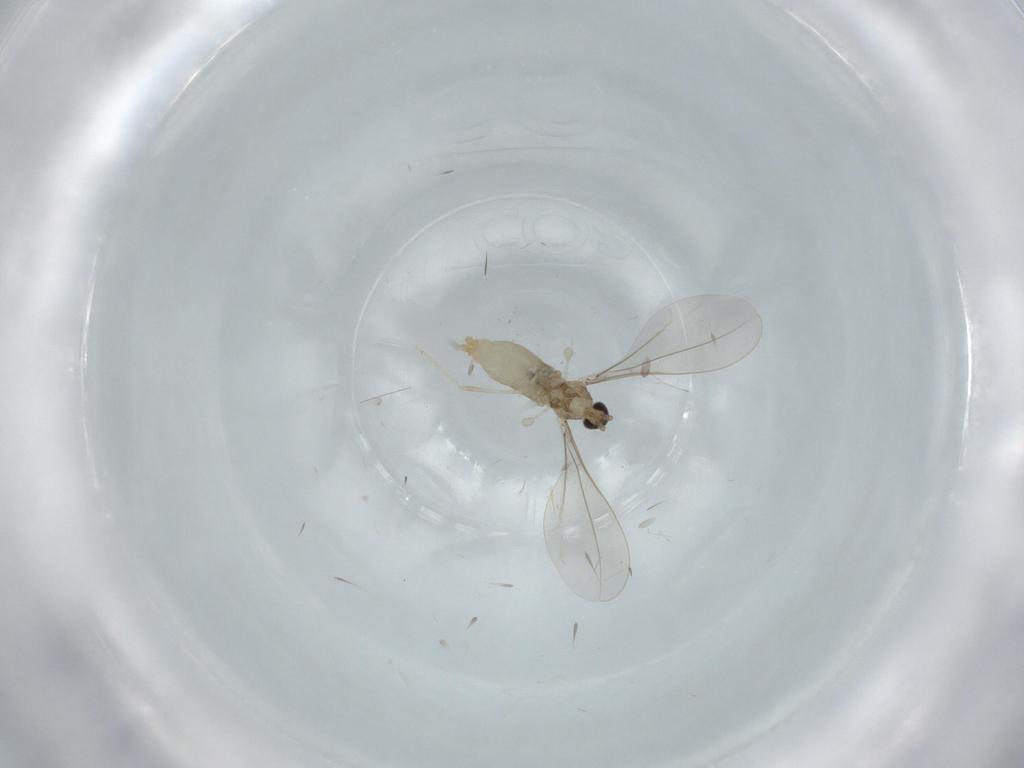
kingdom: Animalia
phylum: Arthropoda
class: Insecta
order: Diptera
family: Cecidomyiidae
